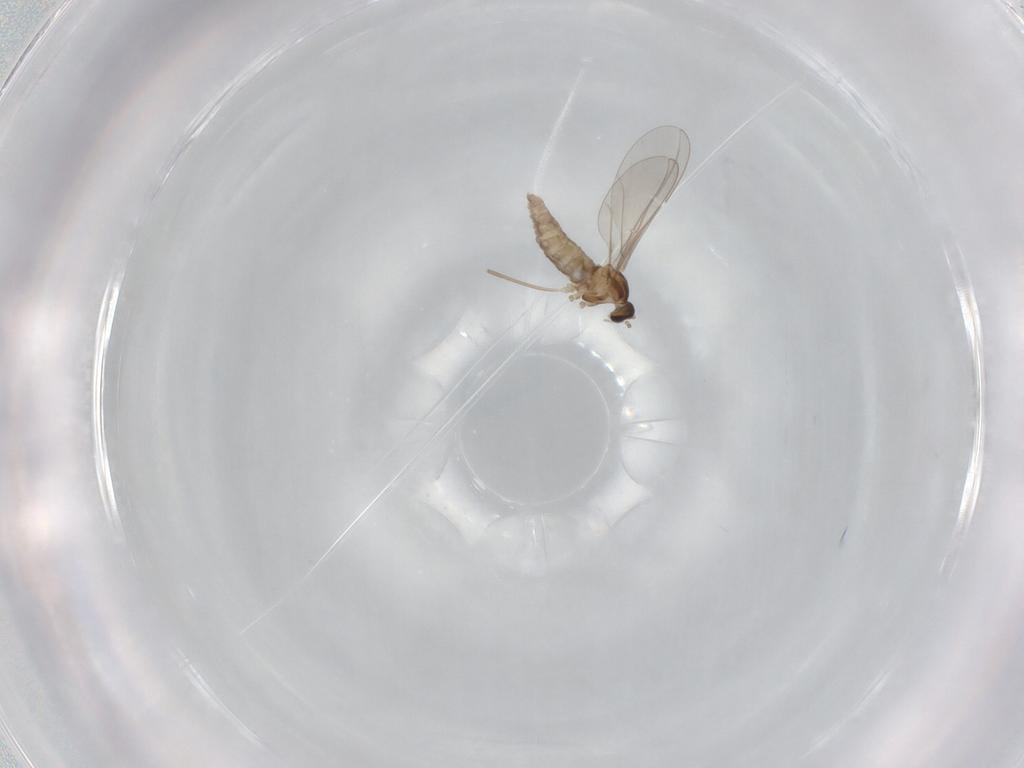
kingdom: Animalia
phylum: Arthropoda
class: Insecta
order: Diptera
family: Cecidomyiidae
